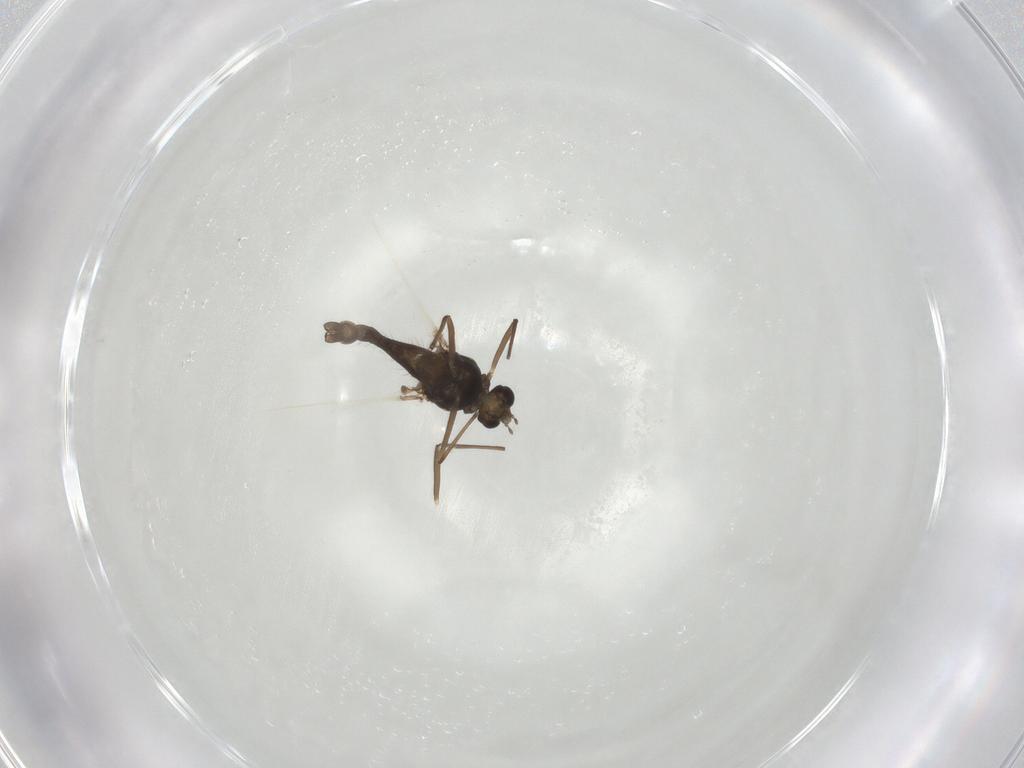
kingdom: Animalia
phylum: Arthropoda
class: Insecta
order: Diptera
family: Chironomidae
